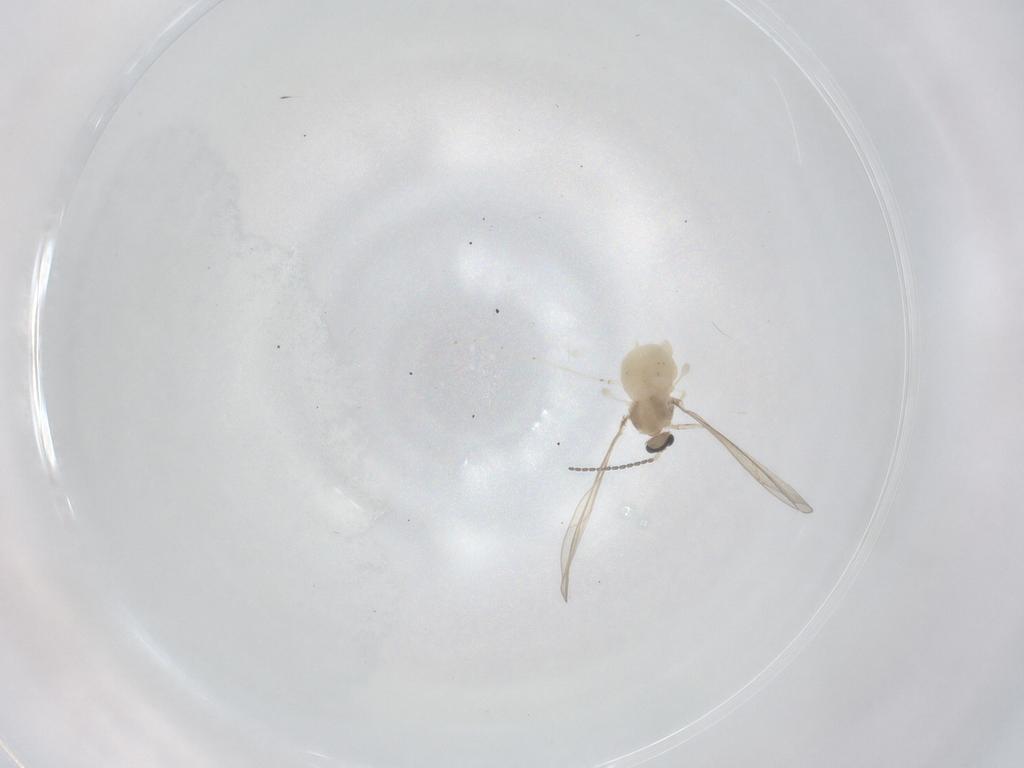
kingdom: Animalia
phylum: Arthropoda
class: Insecta
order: Diptera
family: Cecidomyiidae
